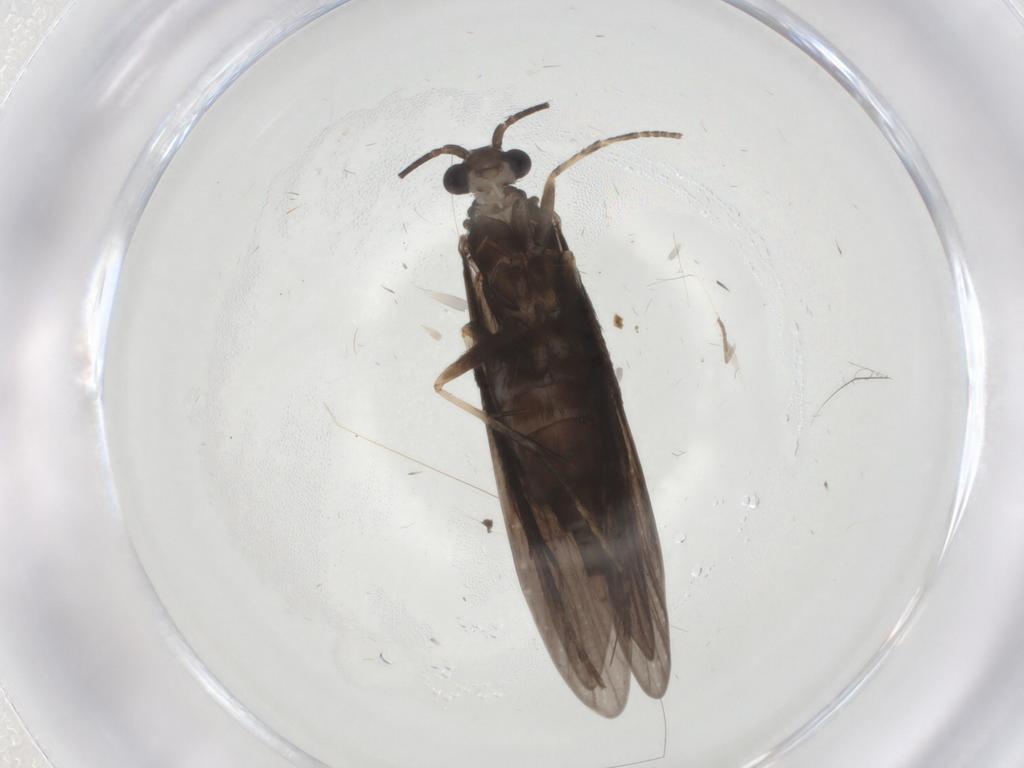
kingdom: Animalia
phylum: Arthropoda
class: Insecta
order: Trichoptera
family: Xiphocentronidae
